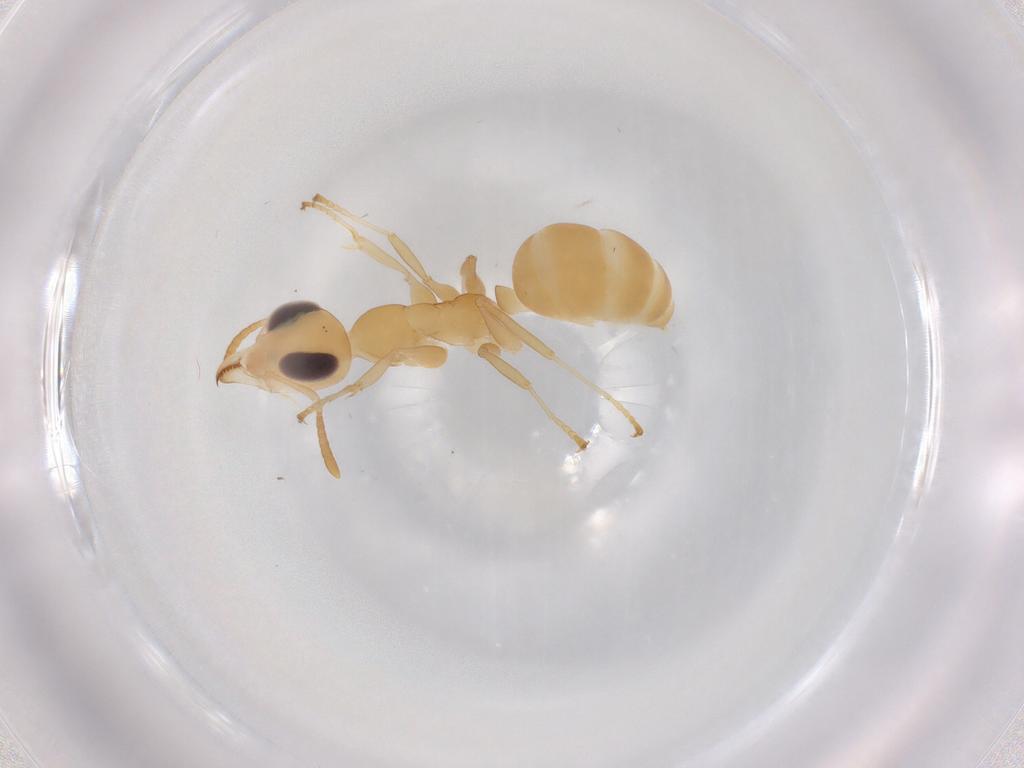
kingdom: Animalia
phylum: Arthropoda
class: Insecta
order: Hymenoptera
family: Formicidae
